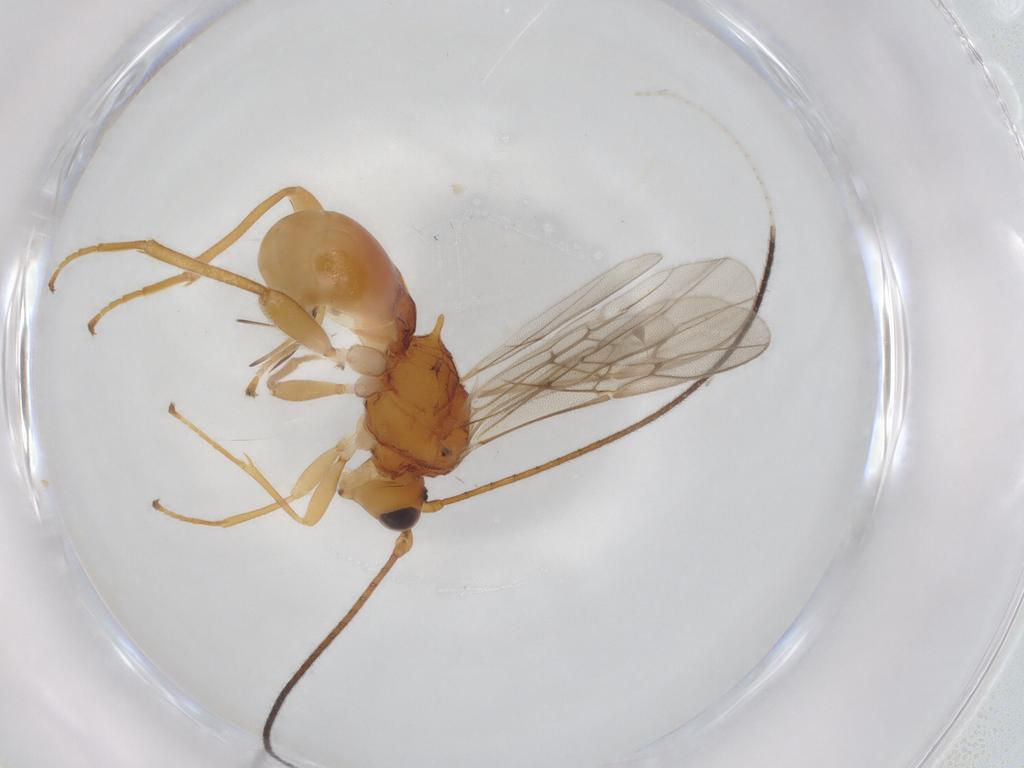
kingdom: Animalia
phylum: Arthropoda
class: Insecta
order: Hymenoptera
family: Braconidae
